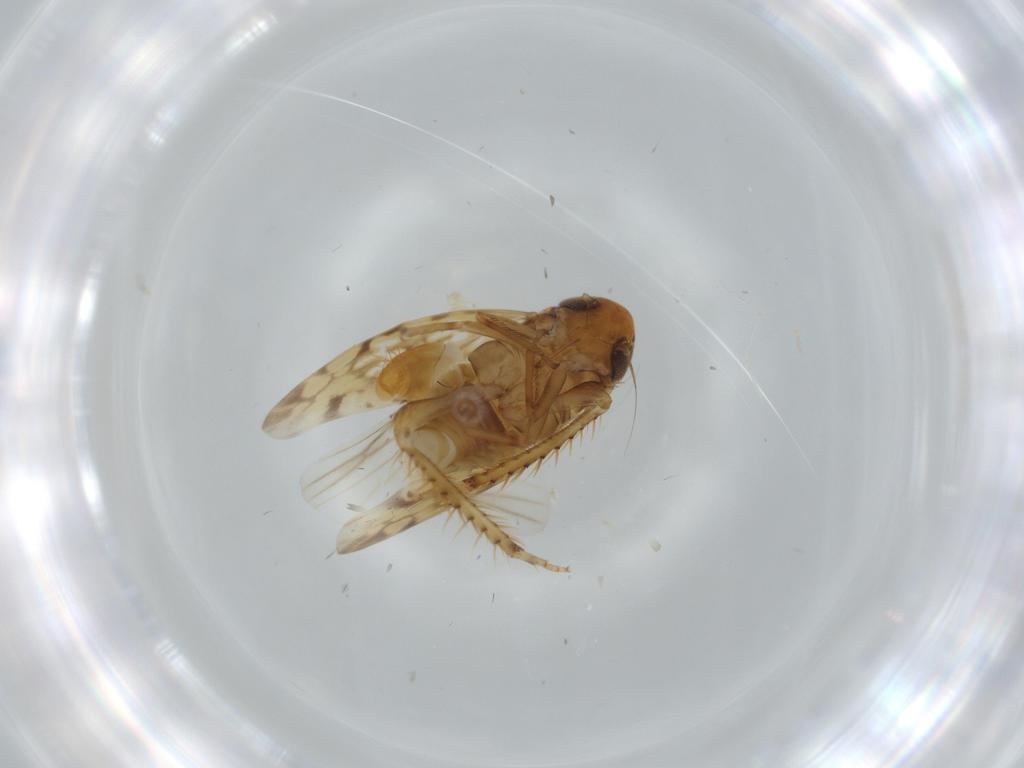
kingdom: Animalia
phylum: Arthropoda
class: Insecta
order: Hemiptera
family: Cicadellidae
